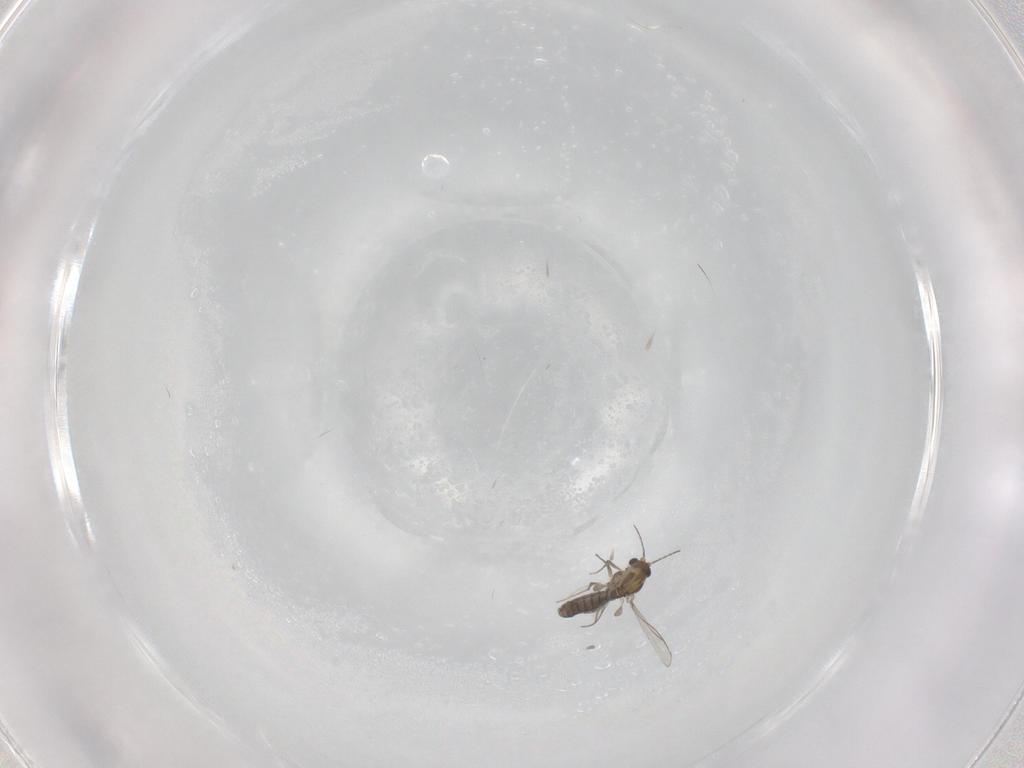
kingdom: Animalia
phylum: Arthropoda
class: Insecta
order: Diptera
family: Chironomidae
